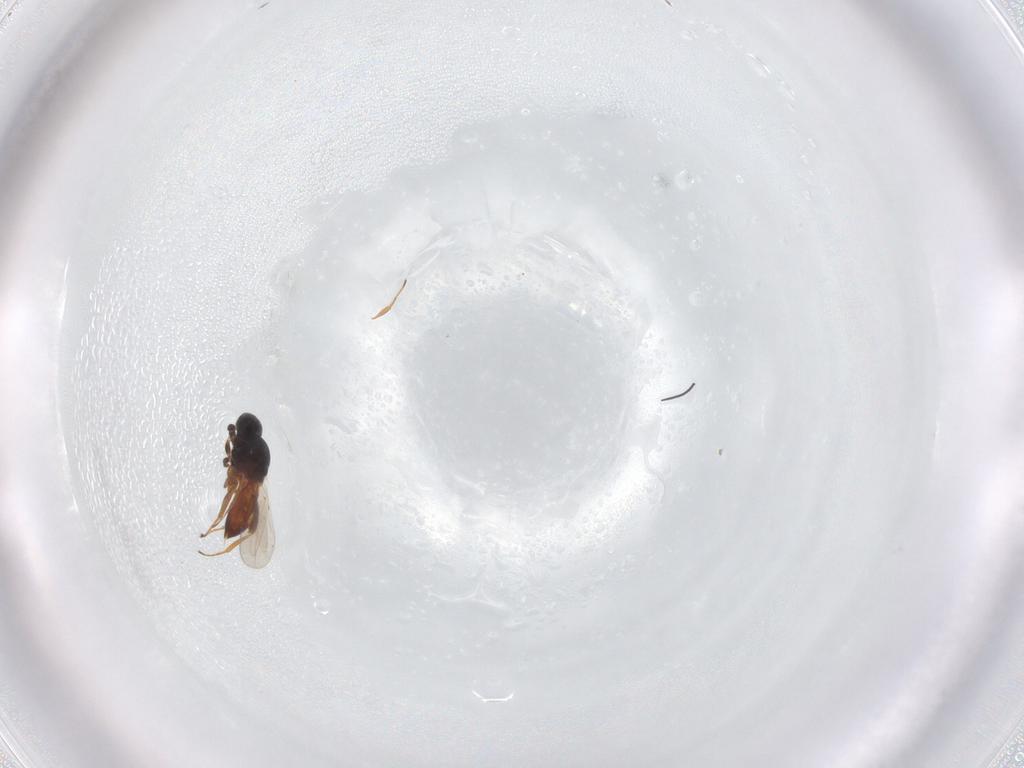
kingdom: Animalia
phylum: Arthropoda
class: Insecta
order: Hymenoptera
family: Platygastridae
